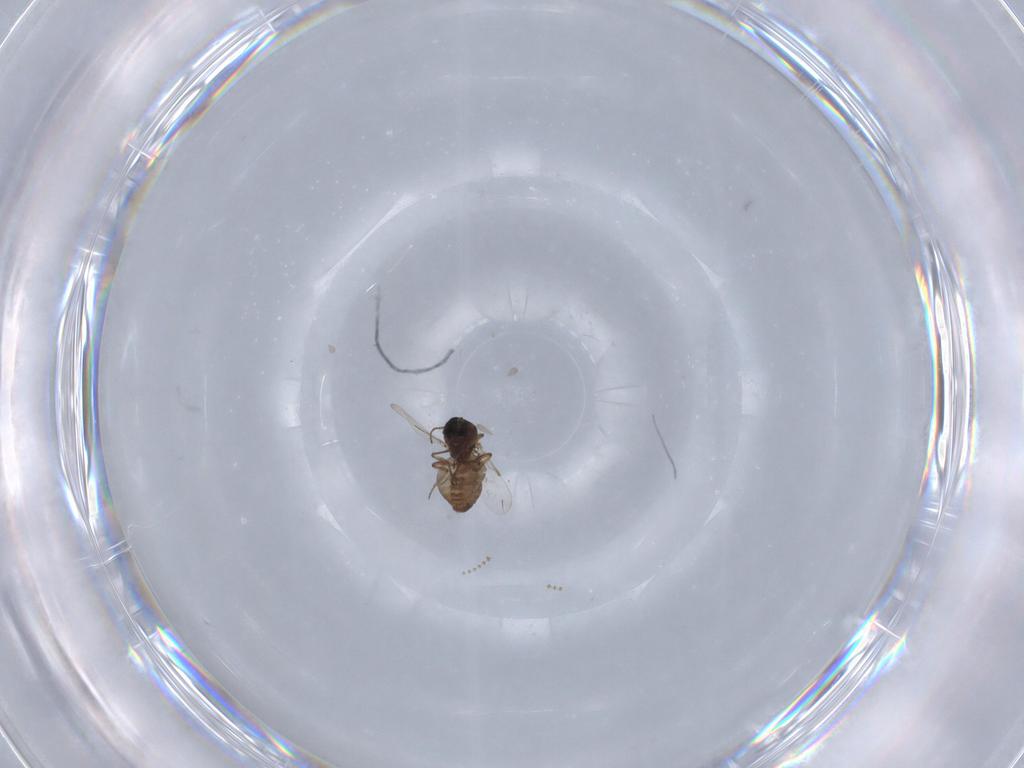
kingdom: Animalia
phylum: Arthropoda
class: Insecta
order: Diptera
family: Ceratopogonidae
